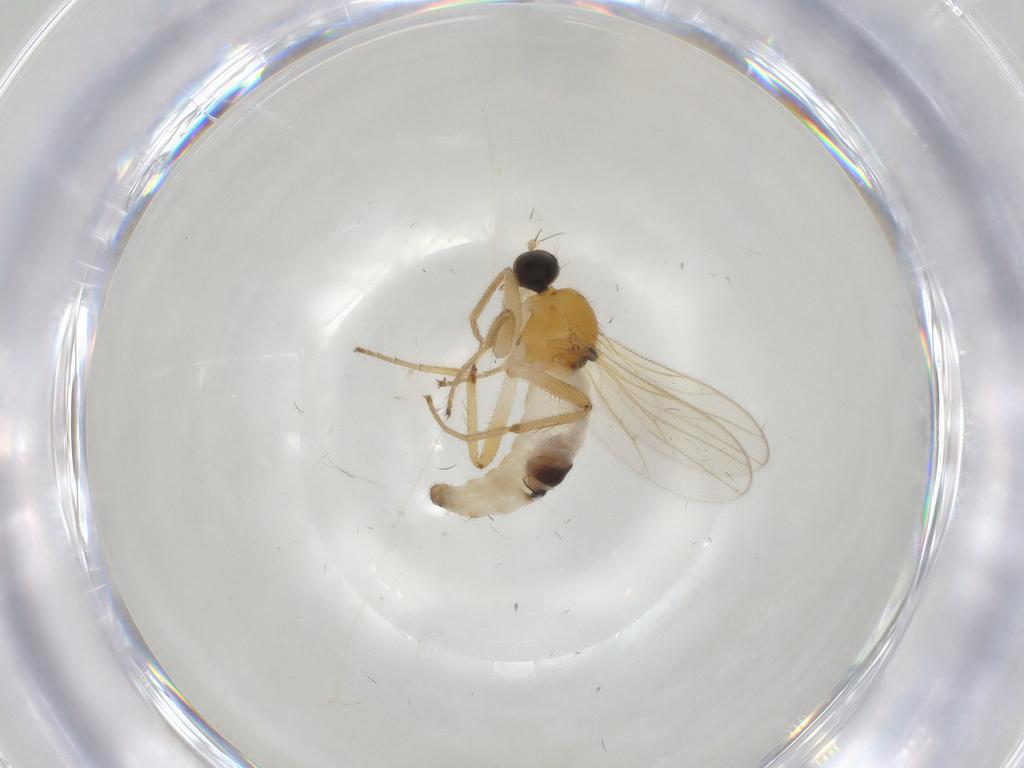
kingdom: Animalia
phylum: Arthropoda
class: Insecta
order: Diptera
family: Hybotidae
